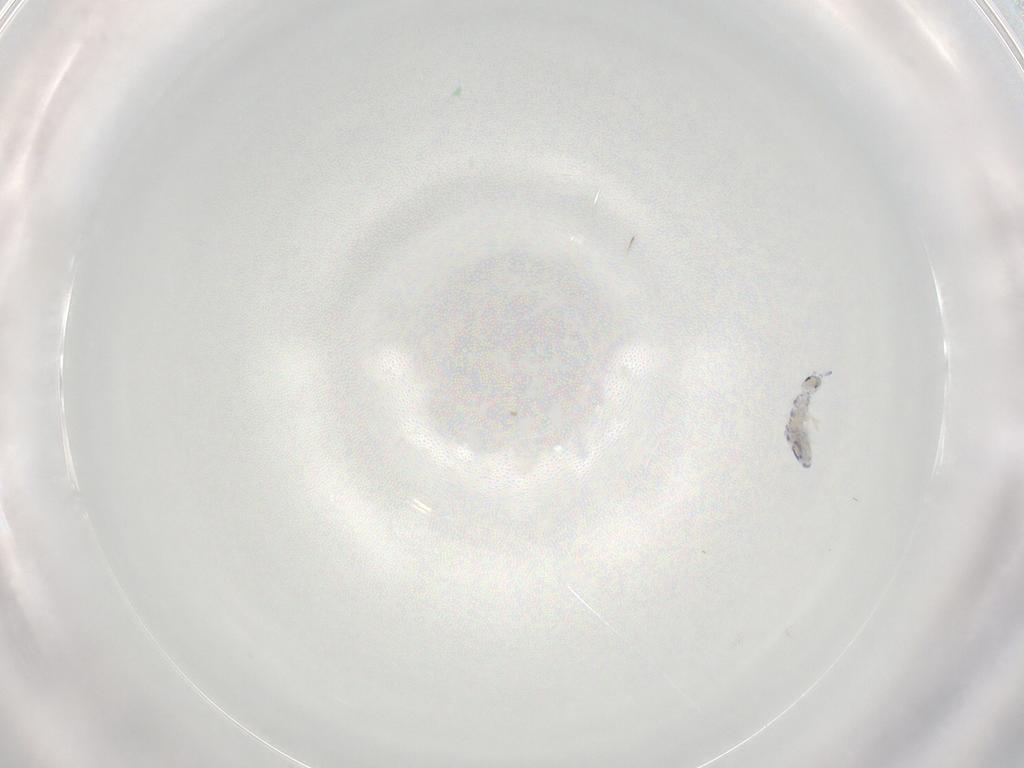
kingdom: Animalia
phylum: Arthropoda
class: Collembola
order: Entomobryomorpha
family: Entomobryidae
